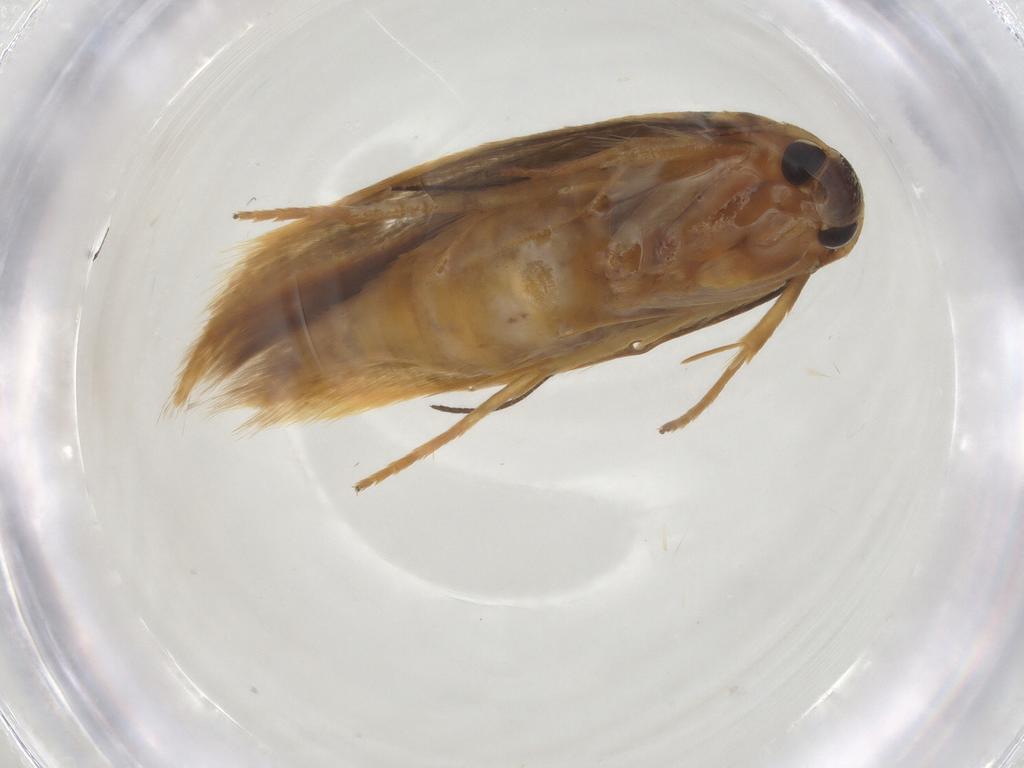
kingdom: Animalia
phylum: Arthropoda
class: Insecta
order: Lepidoptera
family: Stathmopodidae
